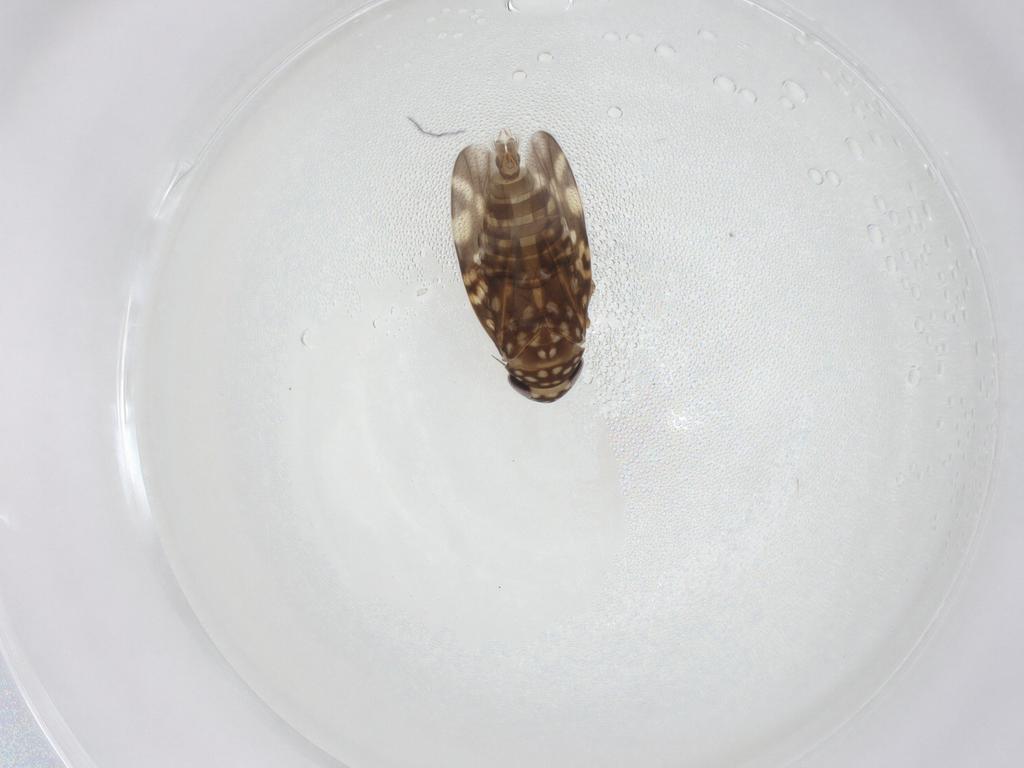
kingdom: Animalia
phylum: Arthropoda
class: Insecta
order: Hemiptera
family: Cicadellidae
